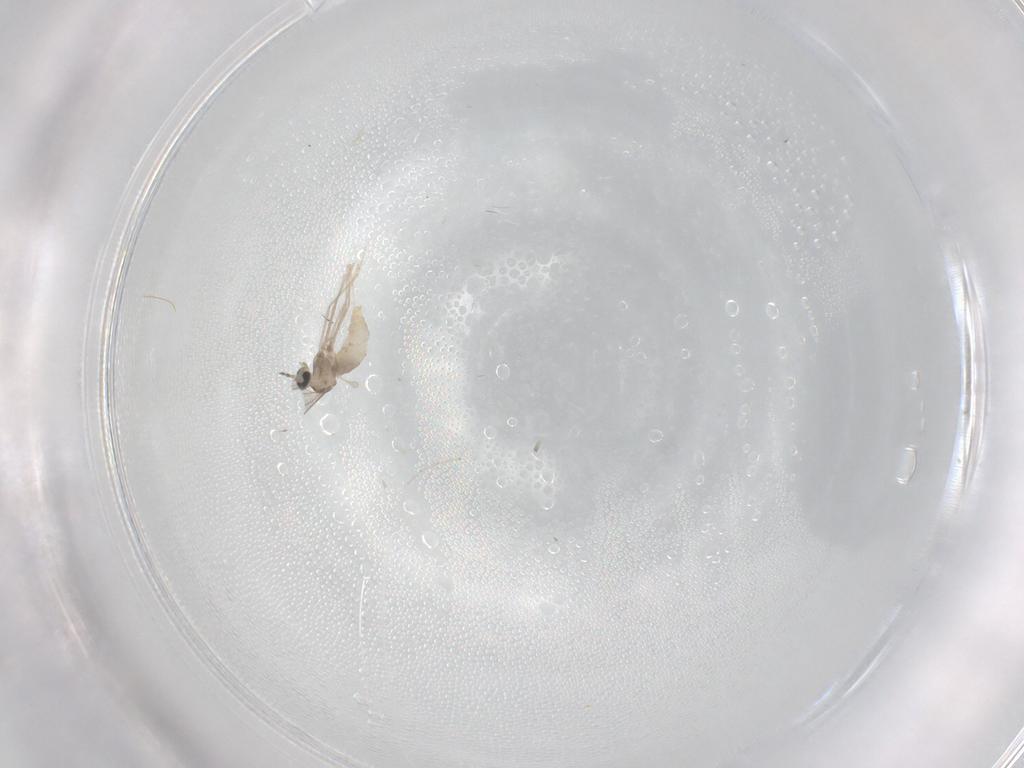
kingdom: Animalia
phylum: Arthropoda
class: Insecta
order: Diptera
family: Cecidomyiidae
